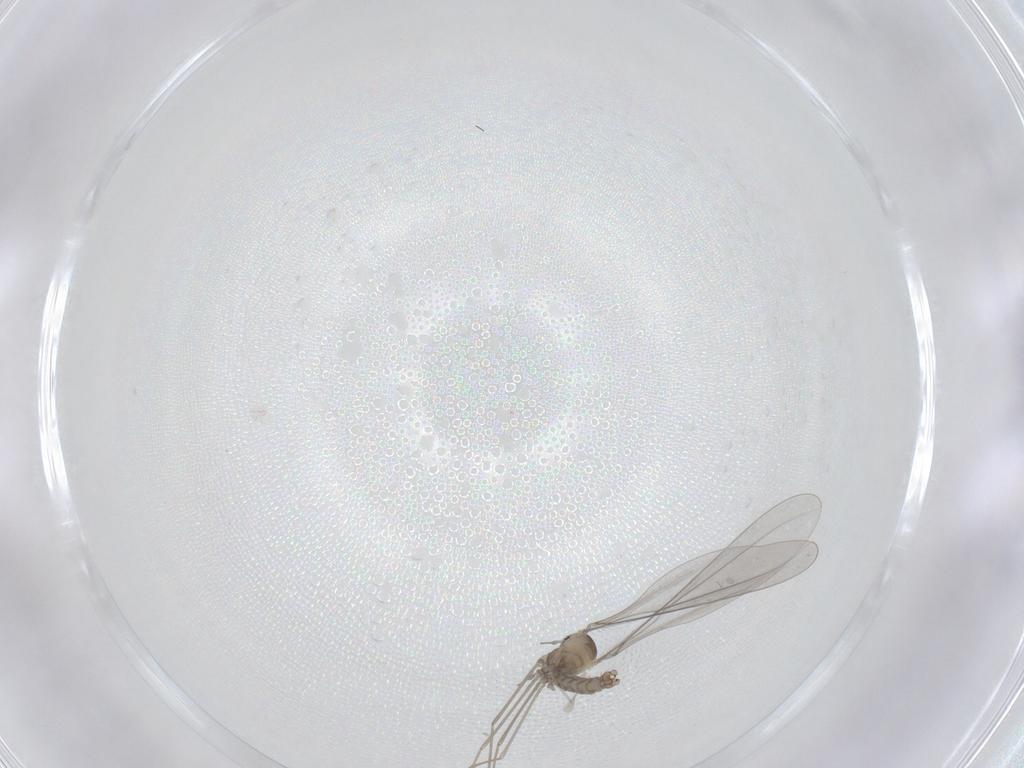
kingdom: Animalia
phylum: Arthropoda
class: Insecta
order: Diptera
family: Cecidomyiidae
